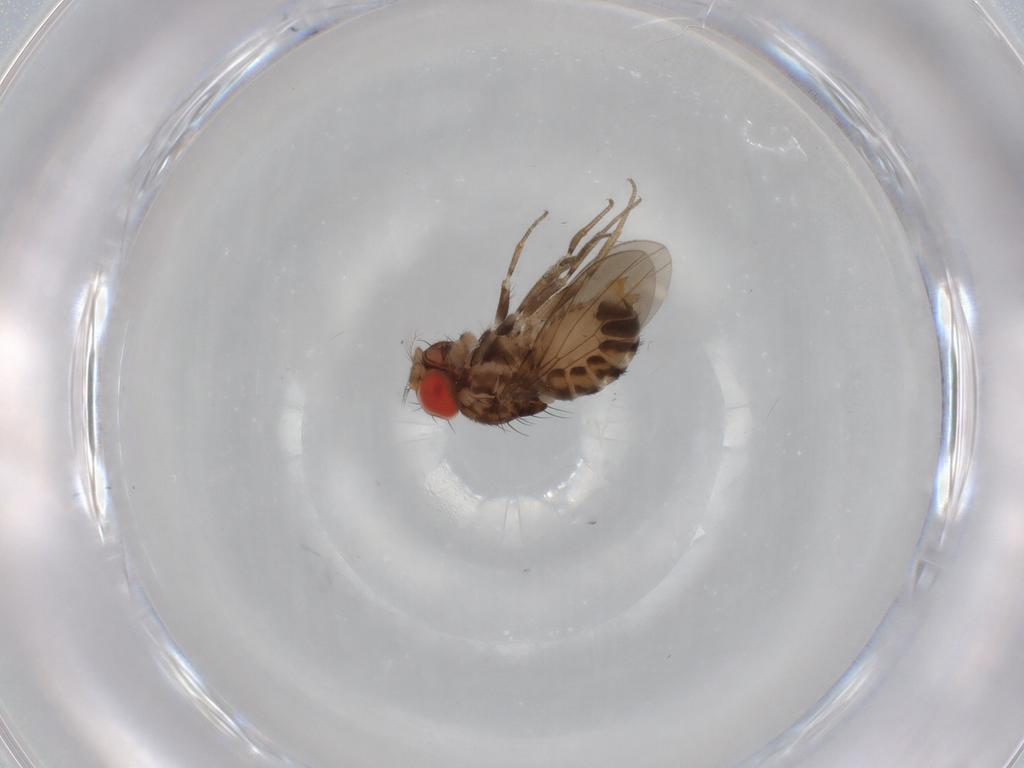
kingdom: Animalia
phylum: Arthropoda
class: Insecta
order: Diptera
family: Drosophilidae
